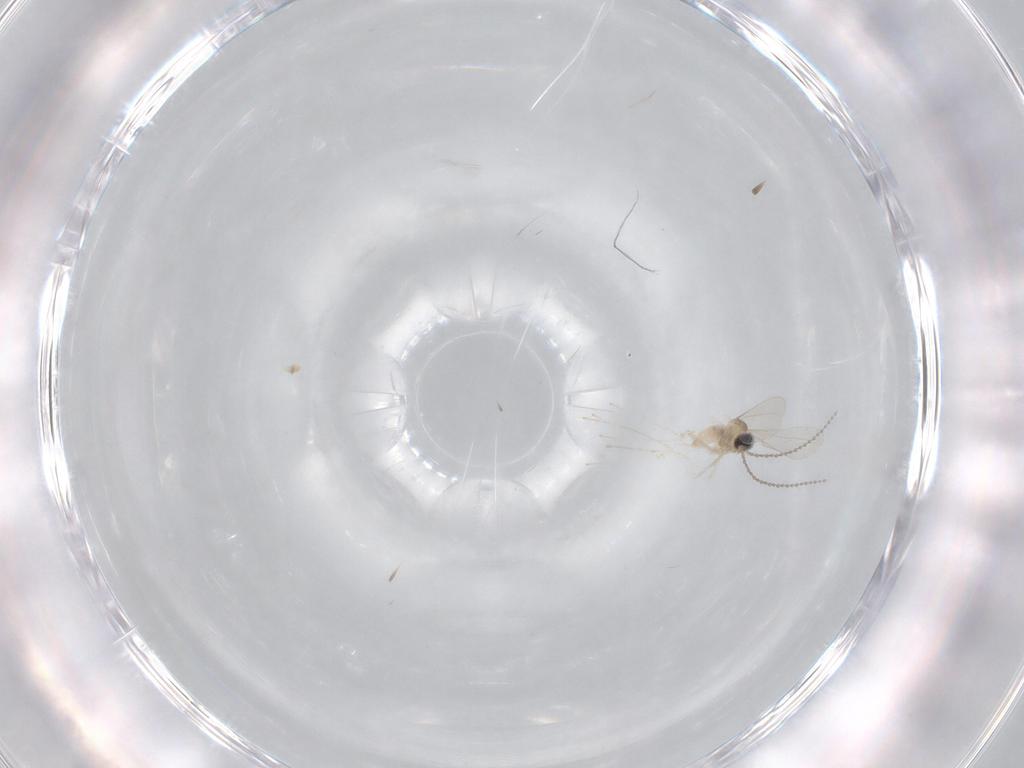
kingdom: Animalia
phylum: Arthropoda
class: Insecta
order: Diptera
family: Cecidomyiidae
